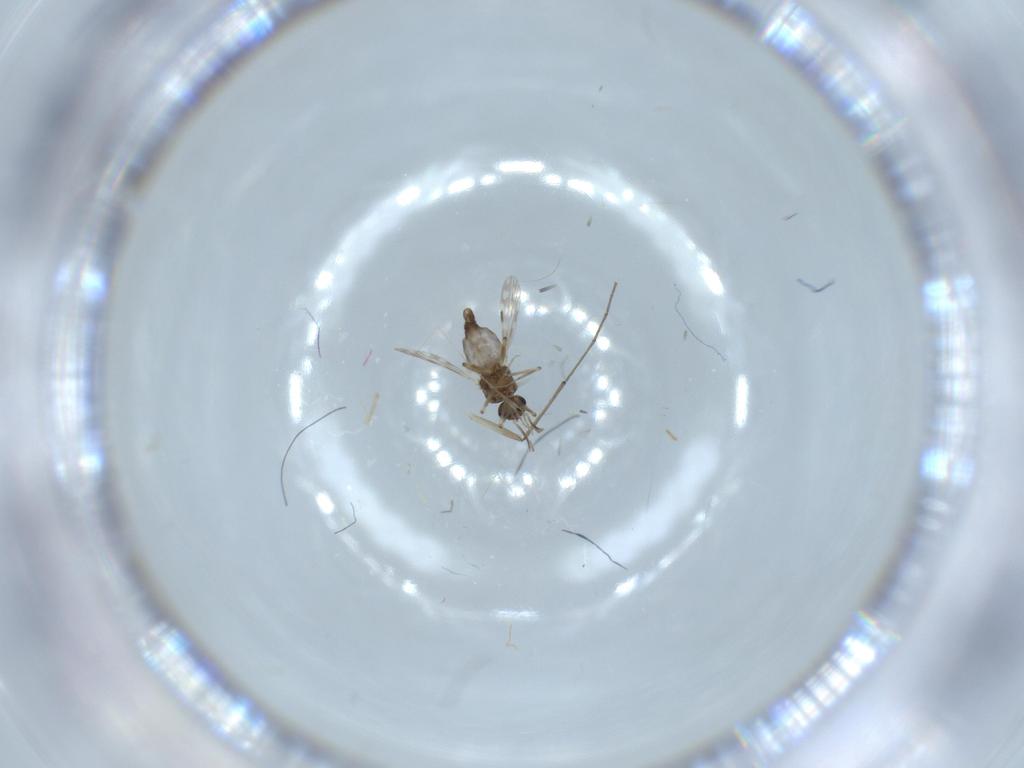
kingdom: Animalia
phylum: Arthropoda
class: Insecta
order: Diptera
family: Cecidomyiidae
